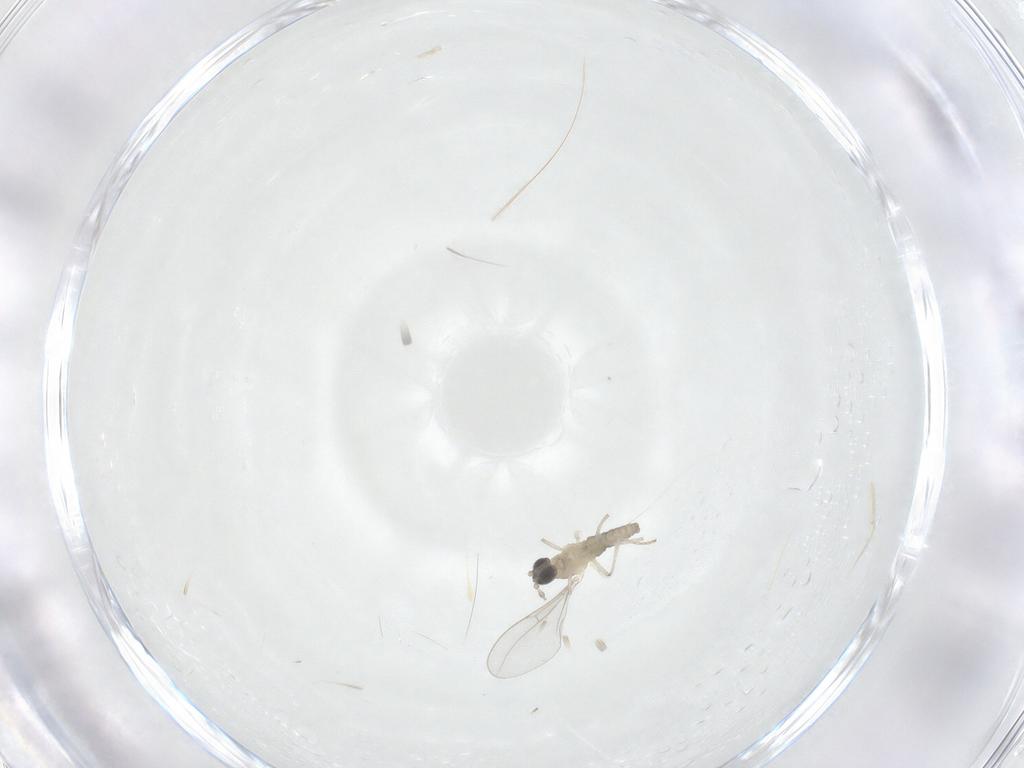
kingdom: Animalia
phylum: Arthropoda
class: Insecta
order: Diptera
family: Cecidomyiidae
